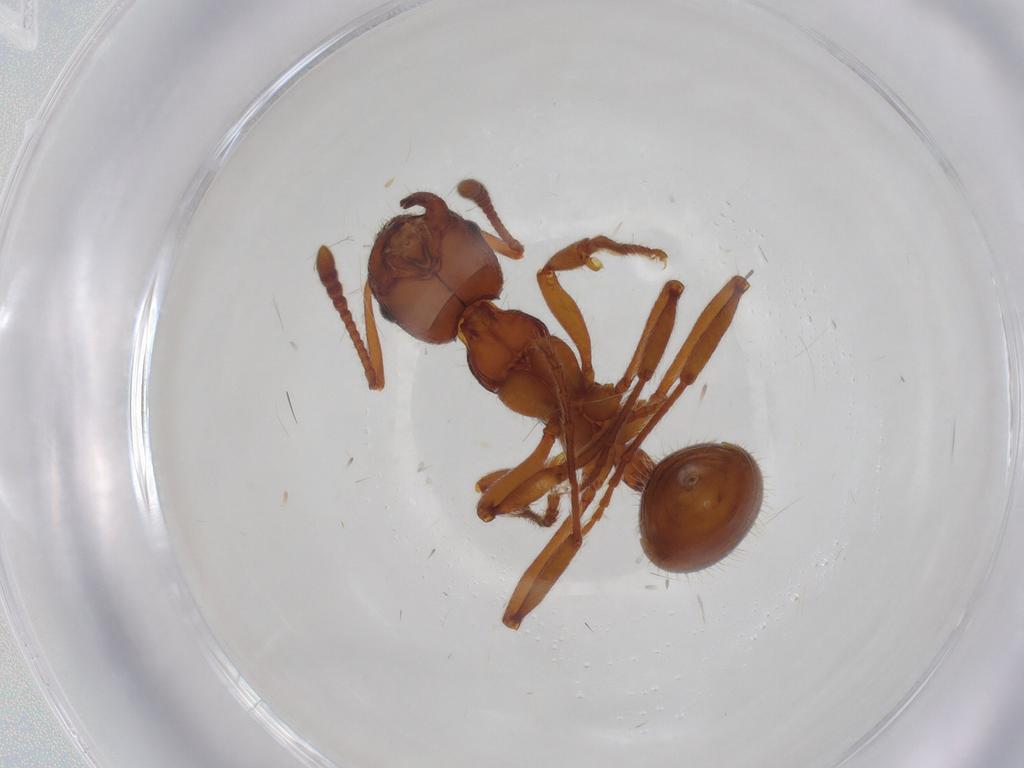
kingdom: Animalia
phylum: Arthropoda
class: Insecta
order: Hymenoptera
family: Formicidae
